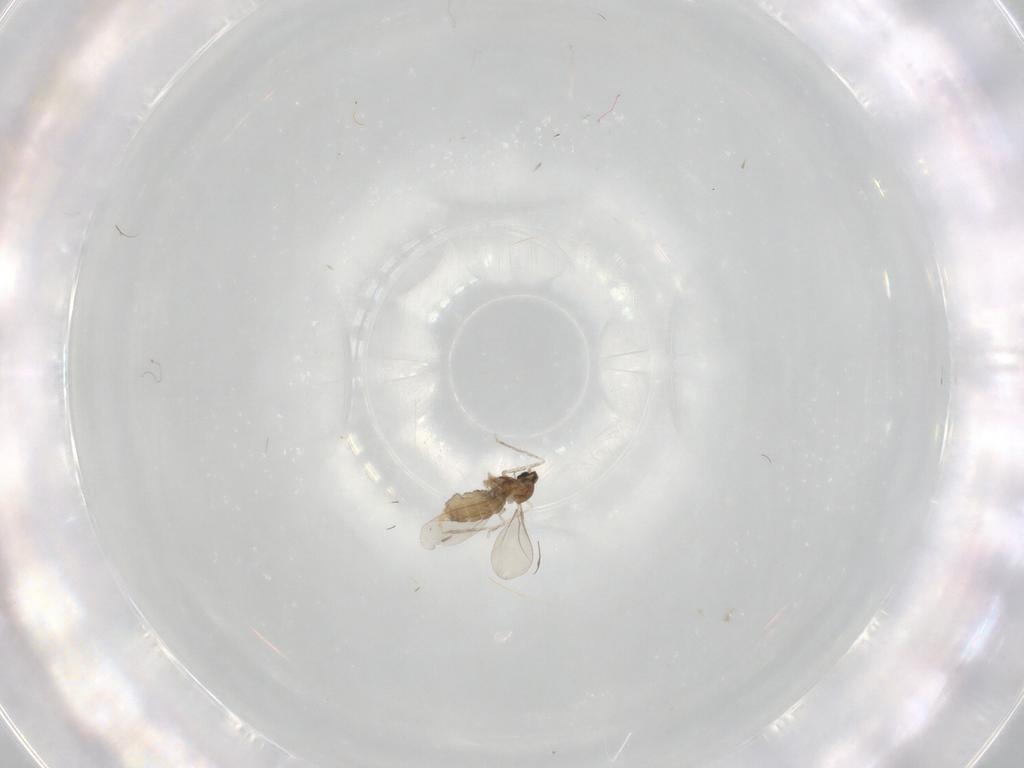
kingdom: Animalia
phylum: Arthropoda
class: Insecta
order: Diptera
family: Cecidomyiidae
